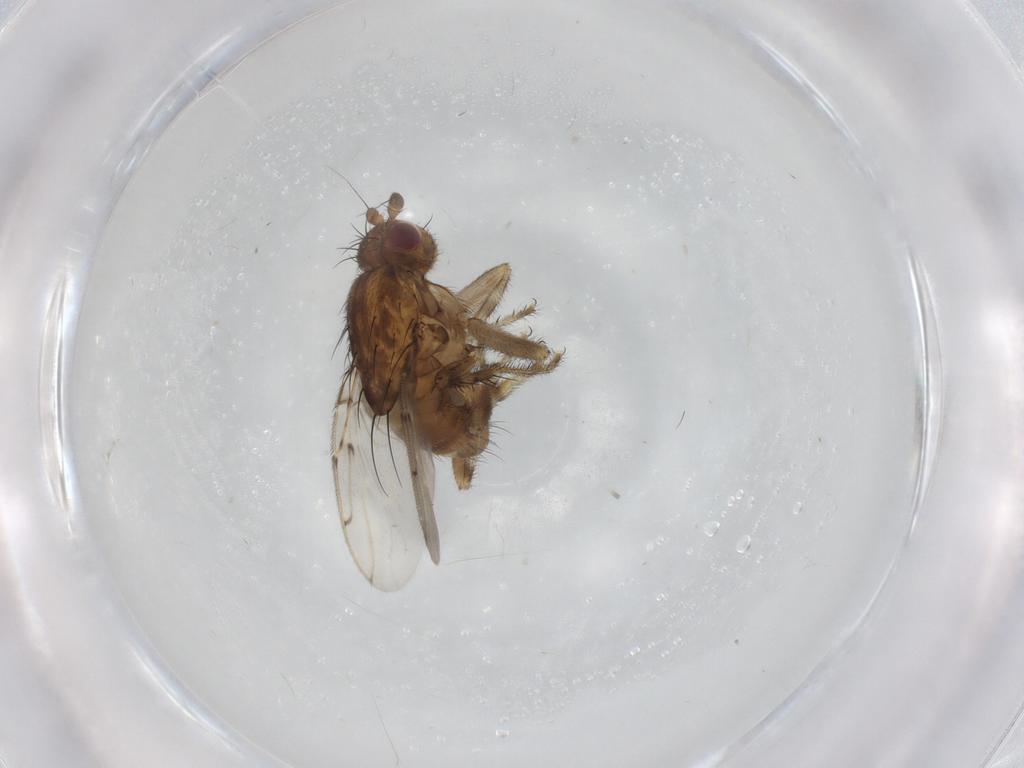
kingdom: Animalia
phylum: Arthropoda
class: Insecta
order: Diptera
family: Sphaeroceridae
